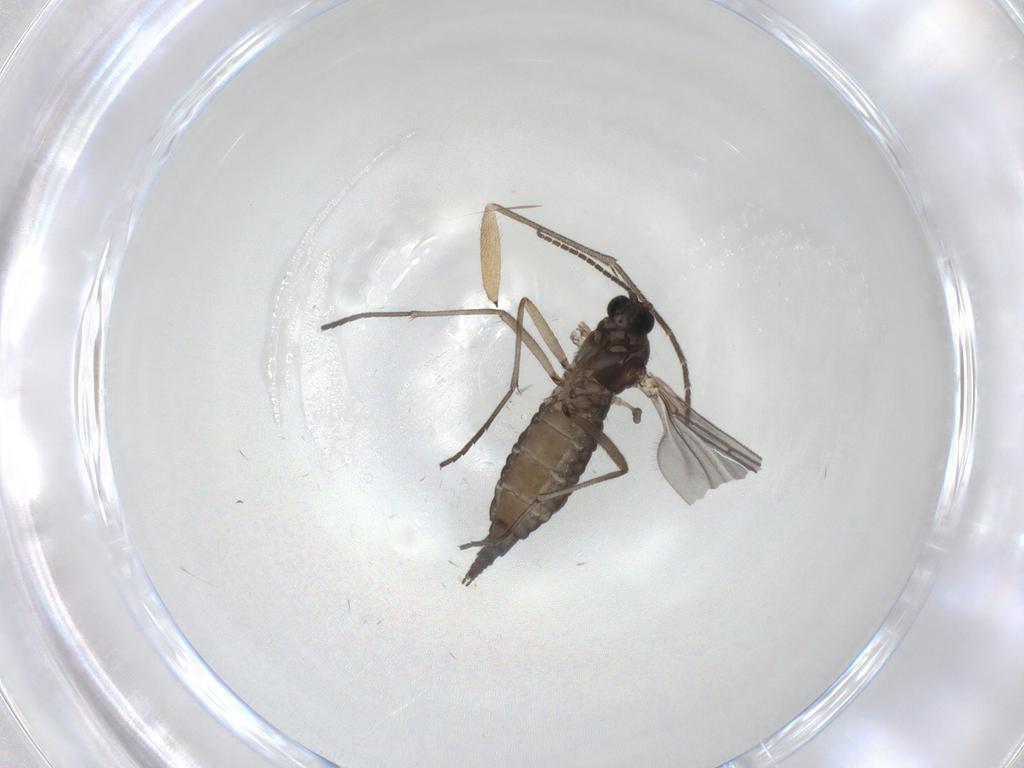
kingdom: Animalia
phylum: Arthropoda
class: Insecta
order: Diptera
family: Sciaridae
